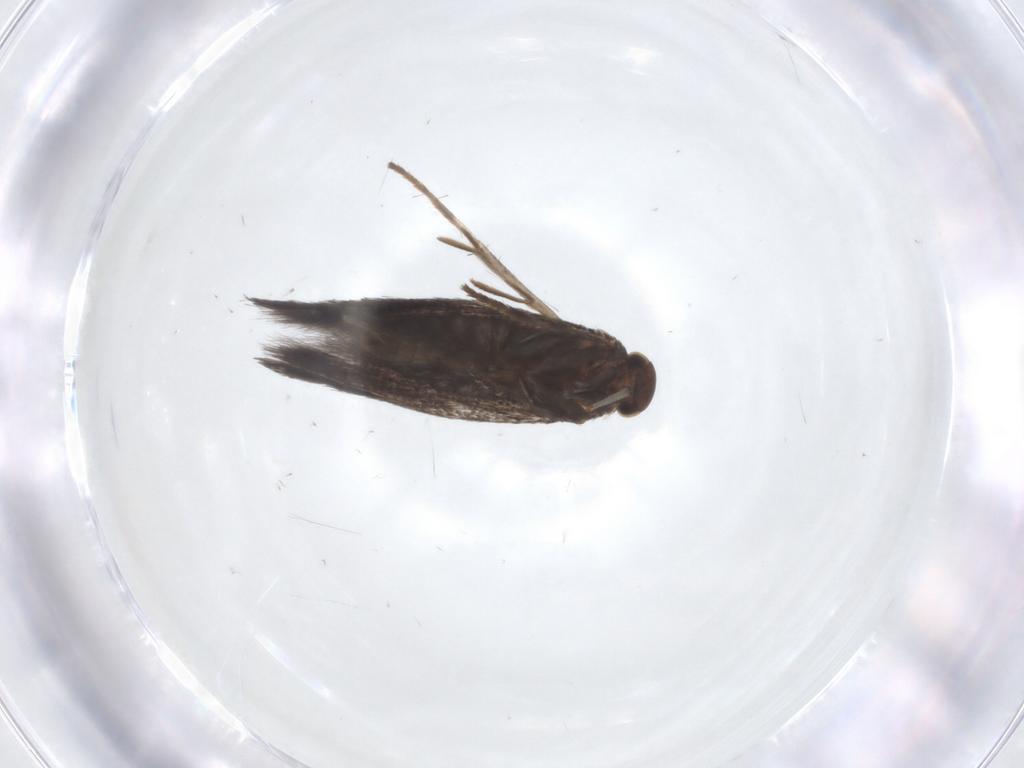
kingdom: Animalia
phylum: Arthropoda
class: Insecta
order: Lepidoptera
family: Elachistidae
